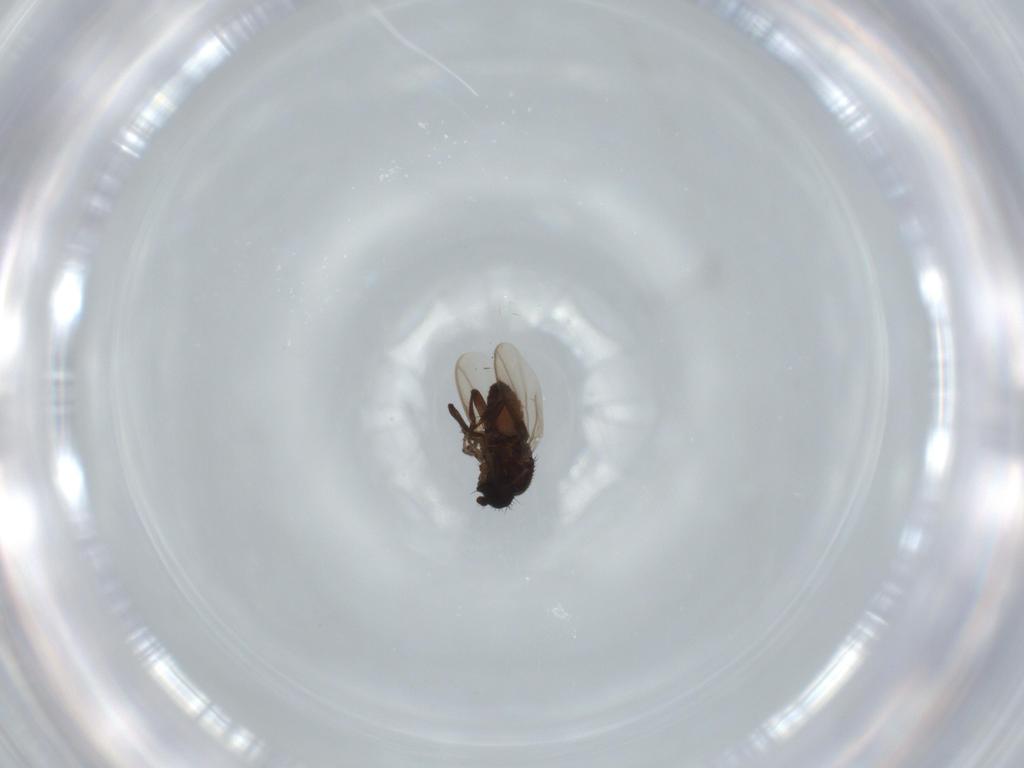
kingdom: Animalia
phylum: Arthropoda
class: Insecta
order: Diptera
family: Sphaeroceridae
